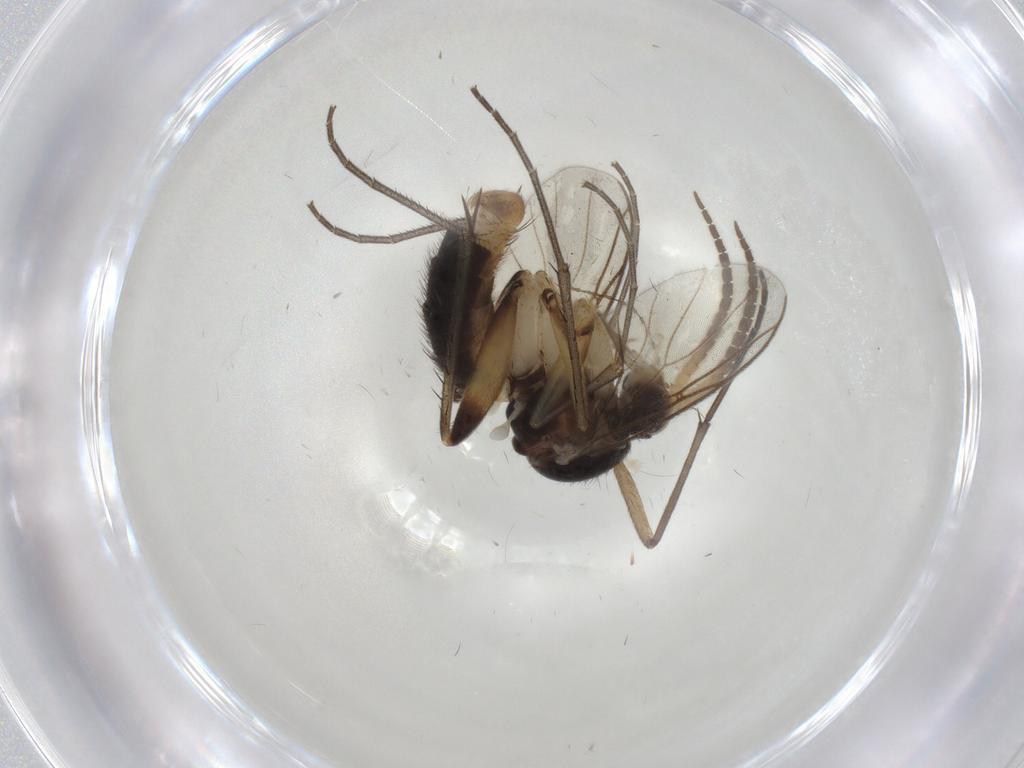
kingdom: Animalia
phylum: Arthropoda
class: Insecta
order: Diptera
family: Mycetophilidae
